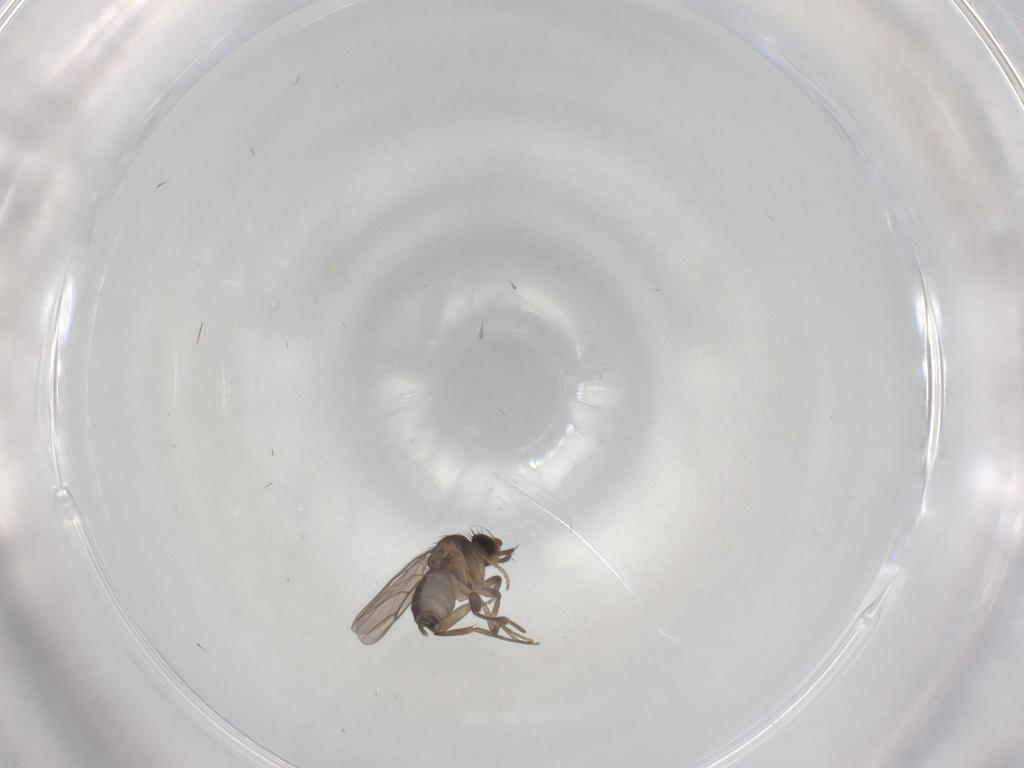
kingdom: Animalia
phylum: Arthropoda
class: Insecta
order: Diptera
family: Phoridae
